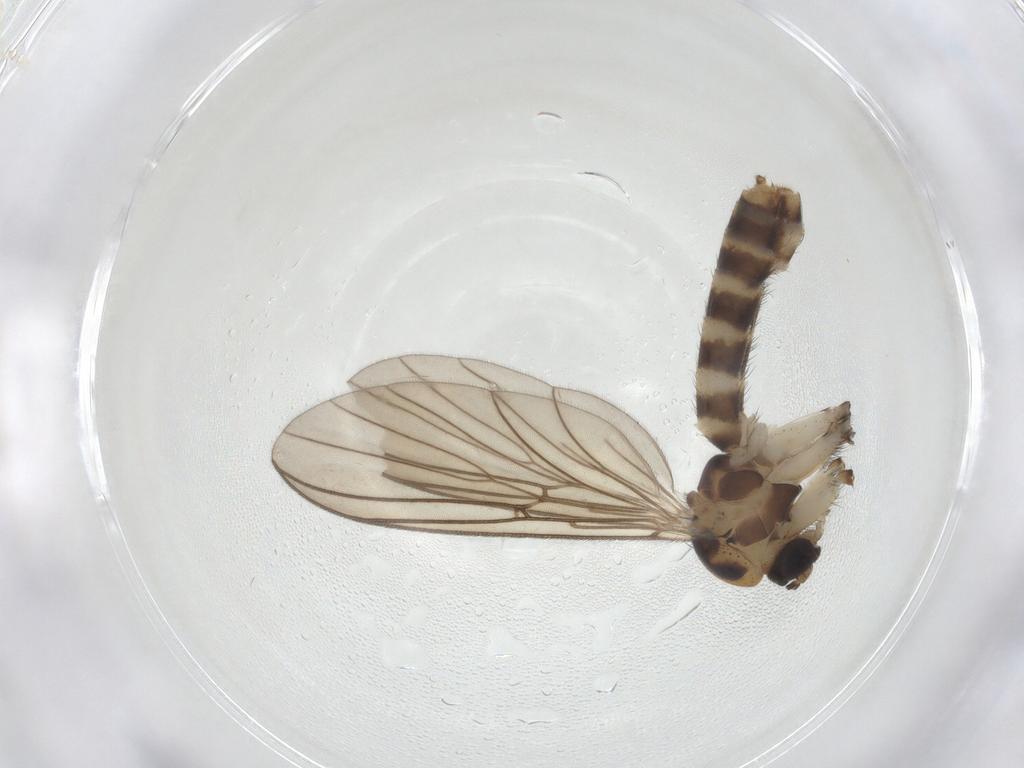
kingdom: Animalia
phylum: Arthropoda
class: Insecta
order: Diptera
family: Mycetophilidae
